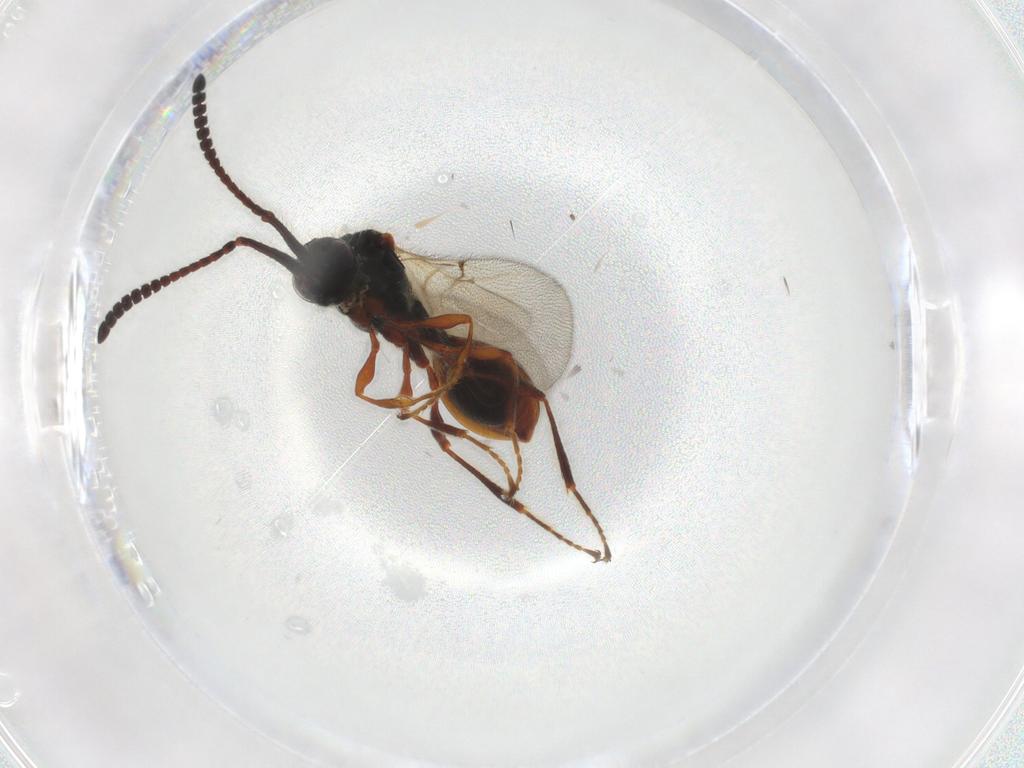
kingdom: Animalia
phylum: Arthropoda
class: Insecta
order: Hymenoptera
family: Diapriidae
